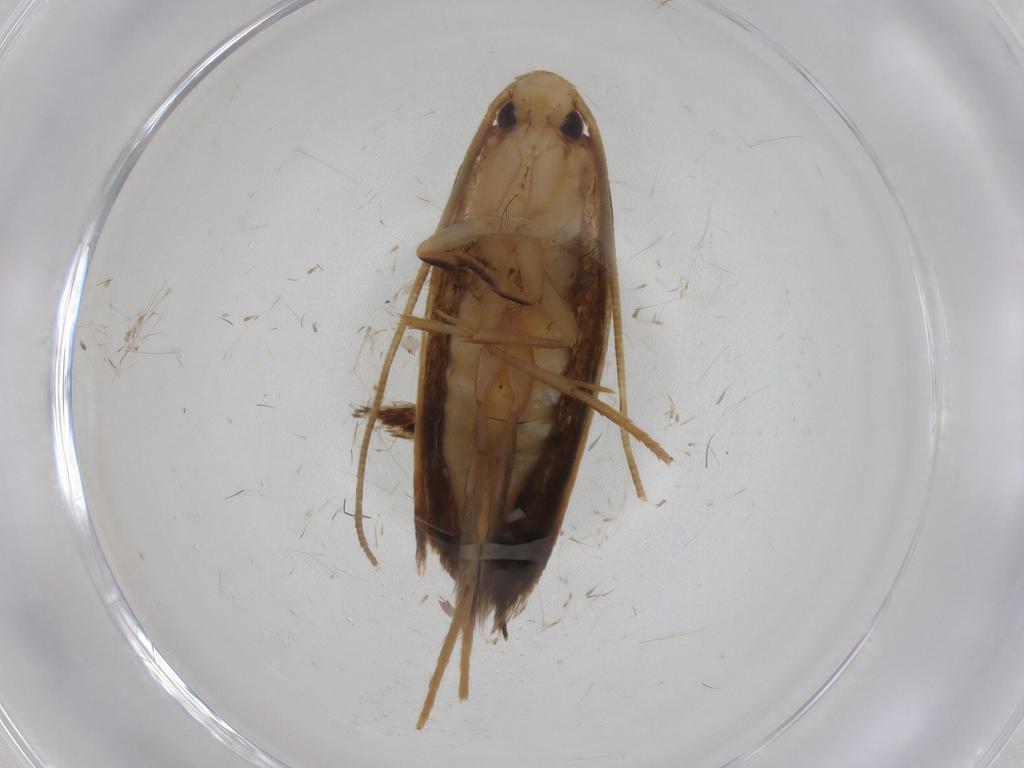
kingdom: Animalia
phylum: Arthropoda
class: Insecta
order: Lepidoptera
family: Tineidae
